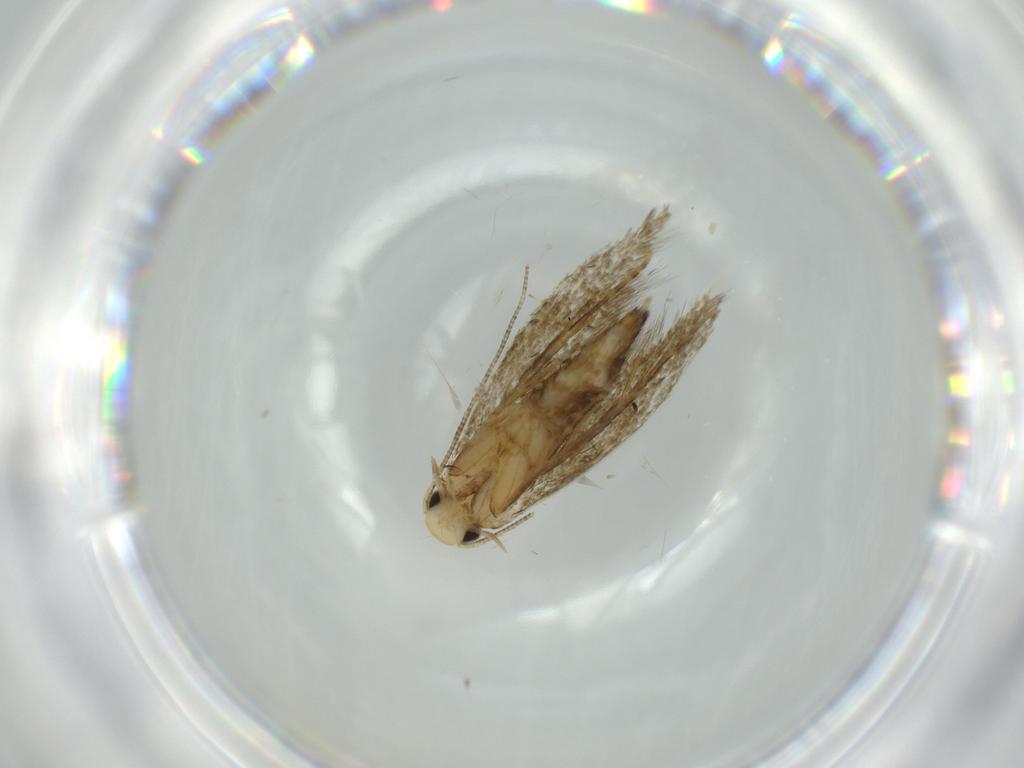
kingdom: Animalia
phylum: Arthropoda
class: Insecta
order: Lepidoptera
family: Tineidae
